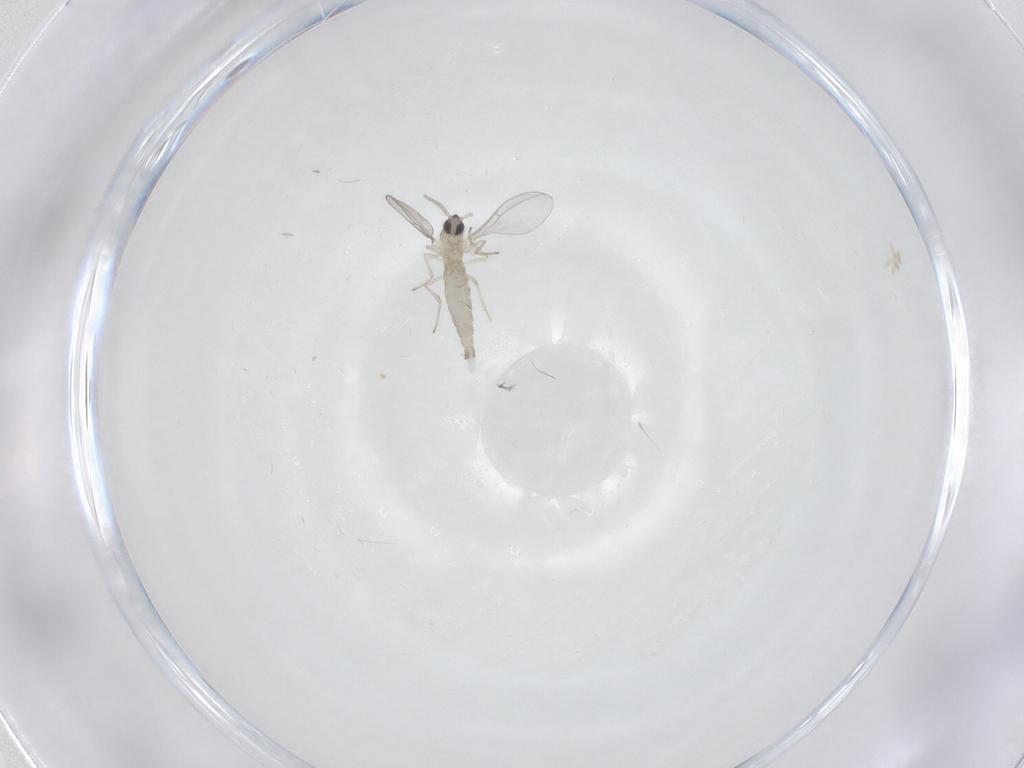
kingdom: Animalia
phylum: Arthropoda
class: Insecta
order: Diptera
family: Cecidomyiidae
